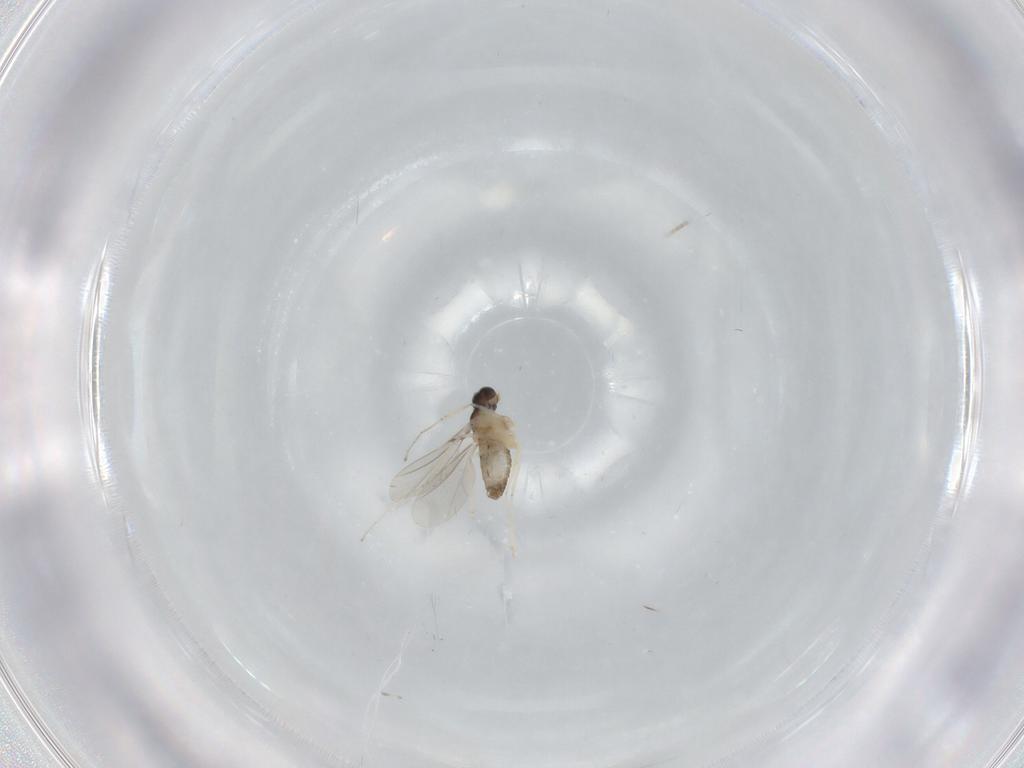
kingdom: Animalia
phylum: Arthropoda
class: Insecta
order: Diptera
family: Cecidomyiidae
